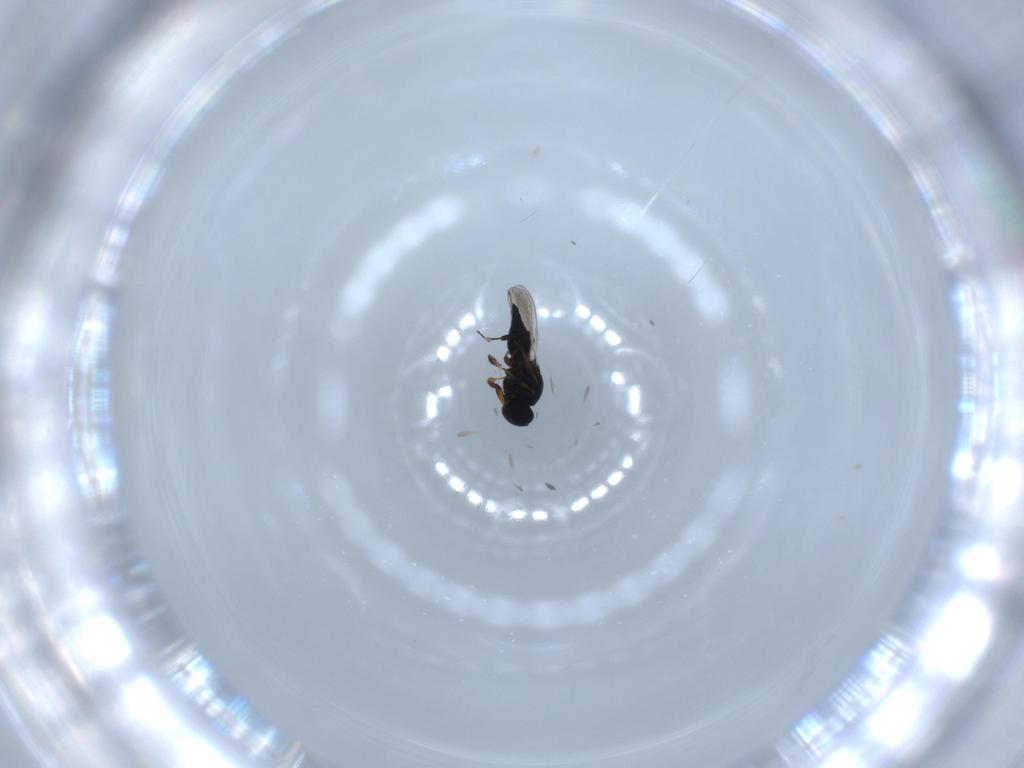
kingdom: Animalia
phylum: Arthropoda
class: Insecta
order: Hymenoptera
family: Platygastridae
